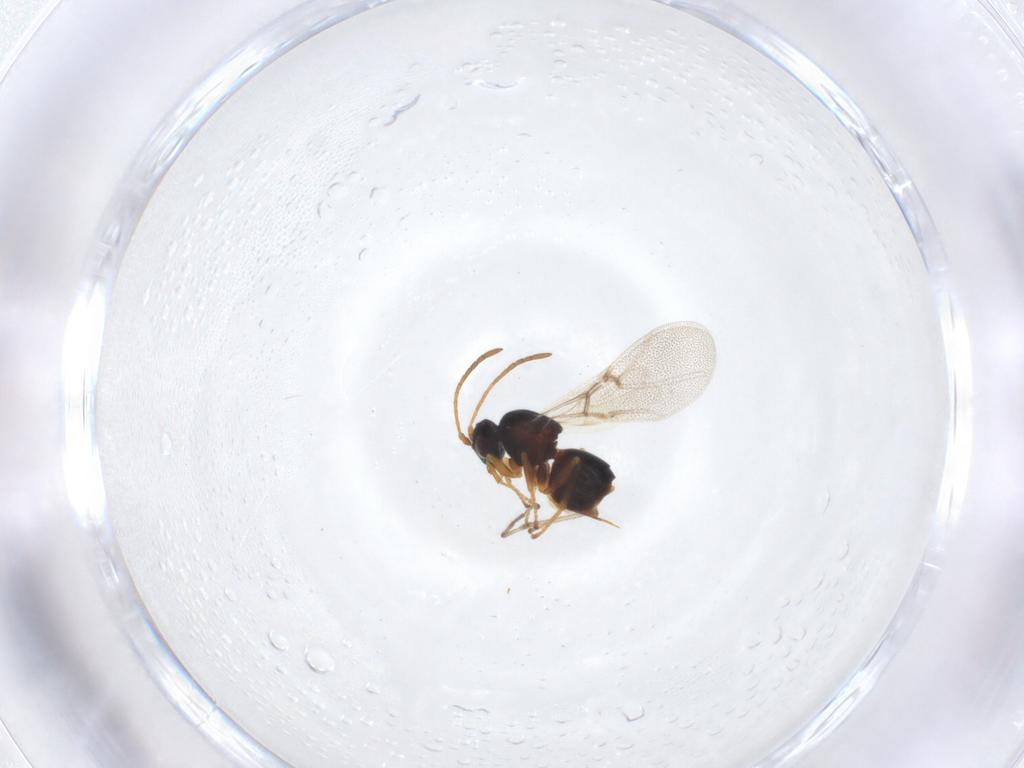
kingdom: Animalia
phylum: Arthropoda
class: Insecta
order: Hymenoptera
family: Cynipidae
